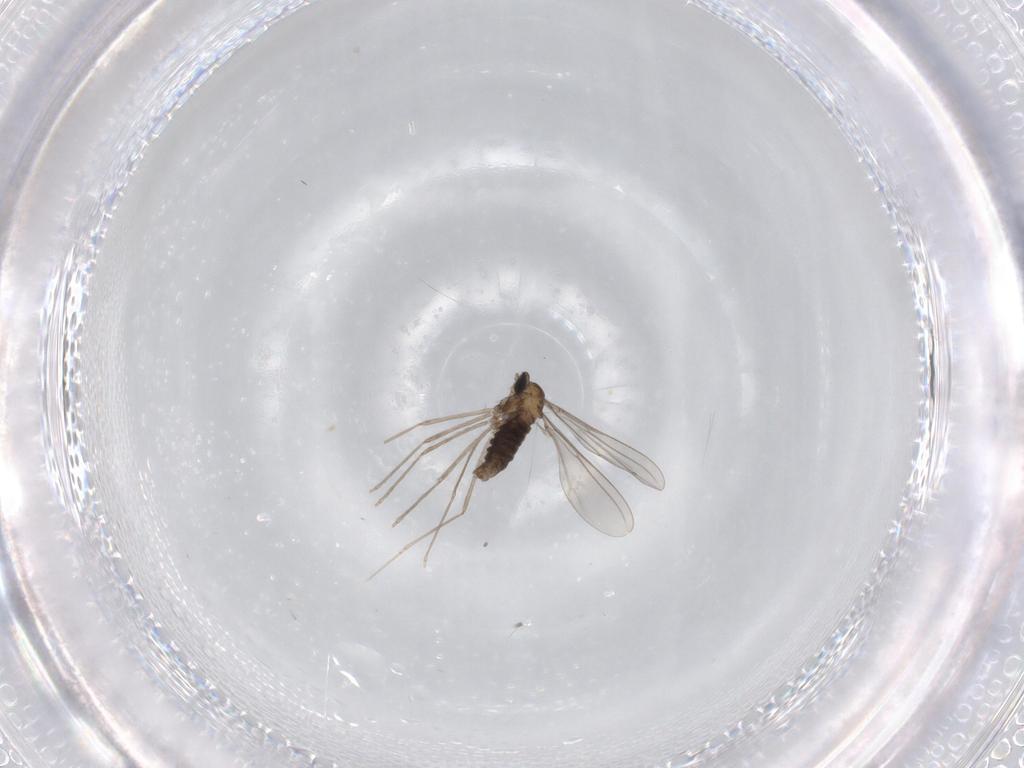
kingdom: Animalia
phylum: Arthropoda
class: Insecta
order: Diptera
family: Cecidomyiidae
